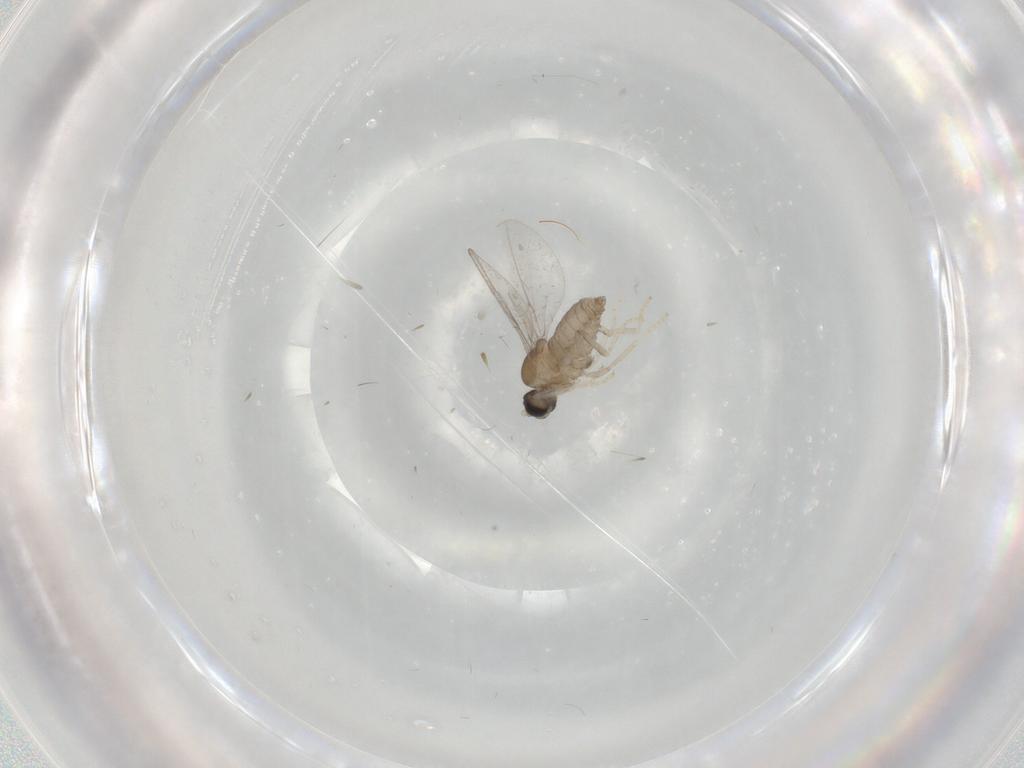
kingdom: Animalia
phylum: Arthropoda
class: Insecta
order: Diptera
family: Cecidomyiidae
